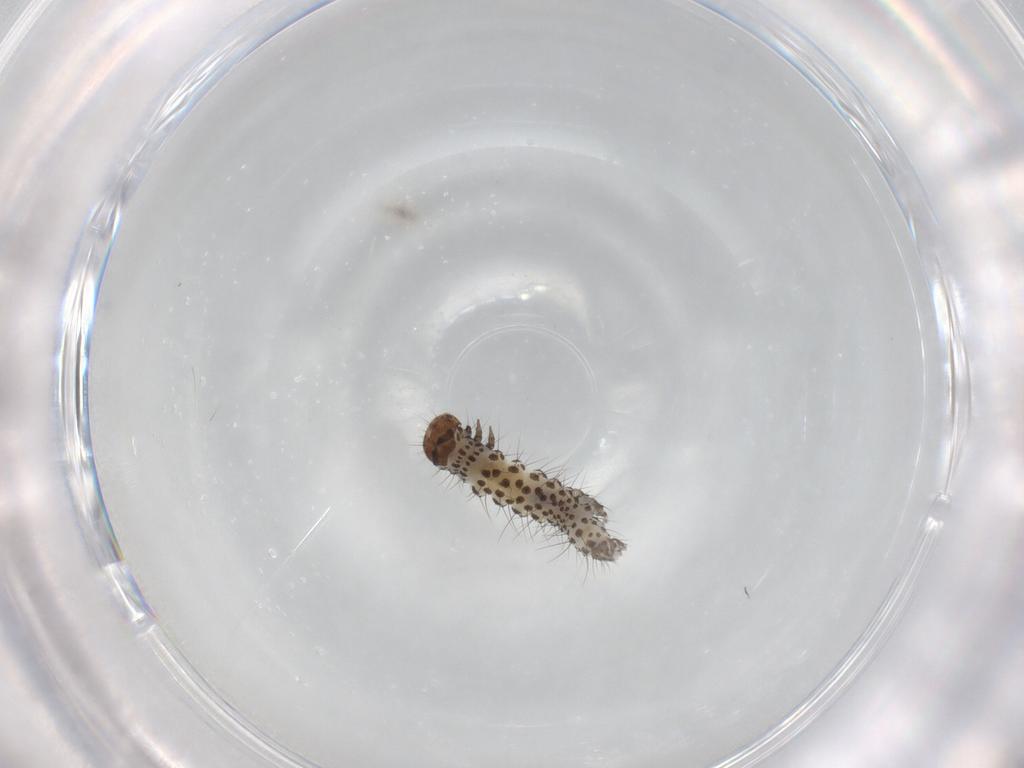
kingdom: Animalia
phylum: Arthropoda
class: Insecta
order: Lepidoptera
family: Noctuidae
